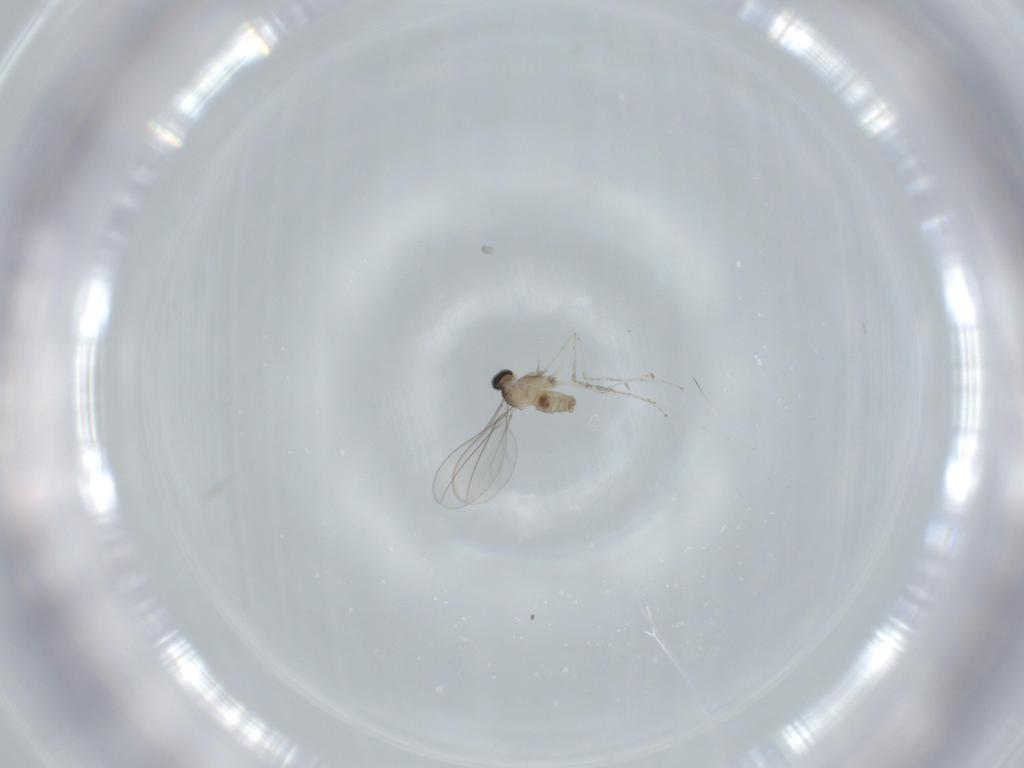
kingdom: Animalia
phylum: Arthropoda
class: Insecta
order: Diptera
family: Cecidomyiidae
